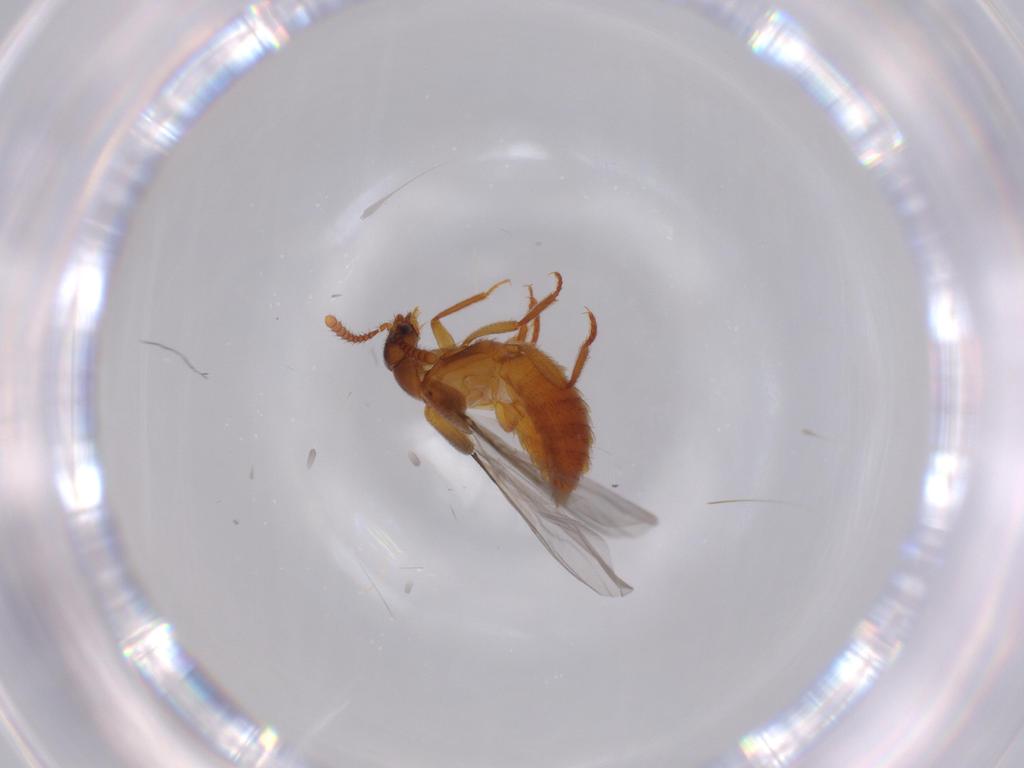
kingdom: Animalia
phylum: Arthropoda
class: Insecta
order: Coleoptera
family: Staphylinidae
